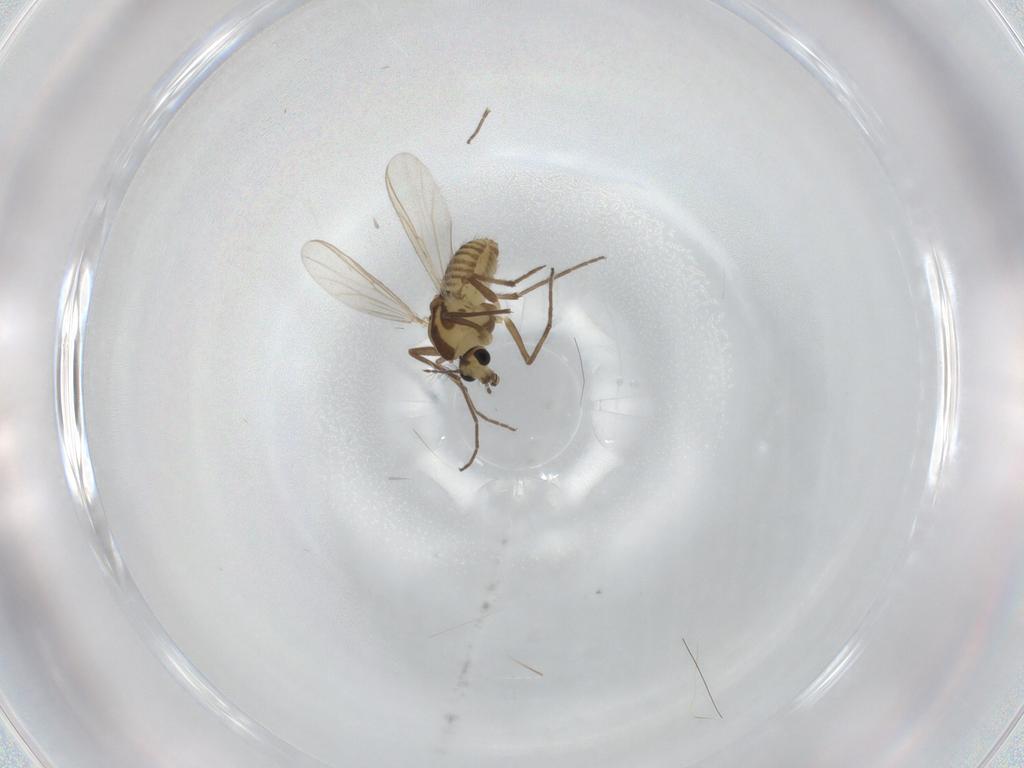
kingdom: Animalia
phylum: Arthropoda
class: Insecta
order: Diptera
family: Chironomidae
